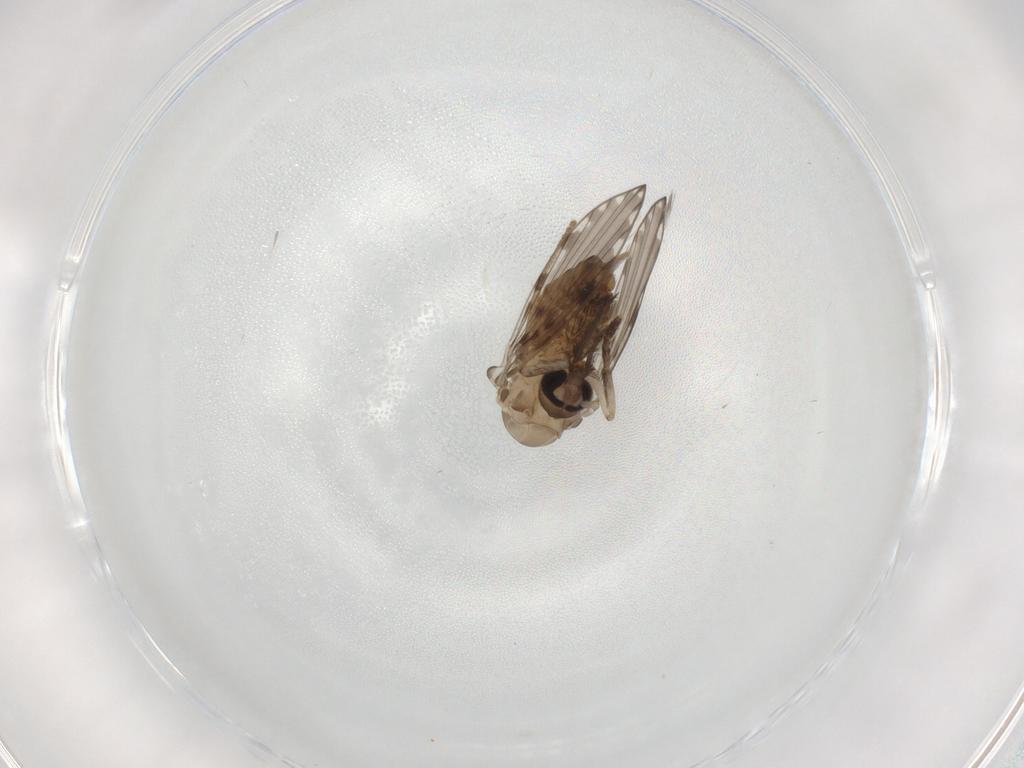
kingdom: Animalia
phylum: Arthropoda
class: Insecta
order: Diptera
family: Psychodidae
